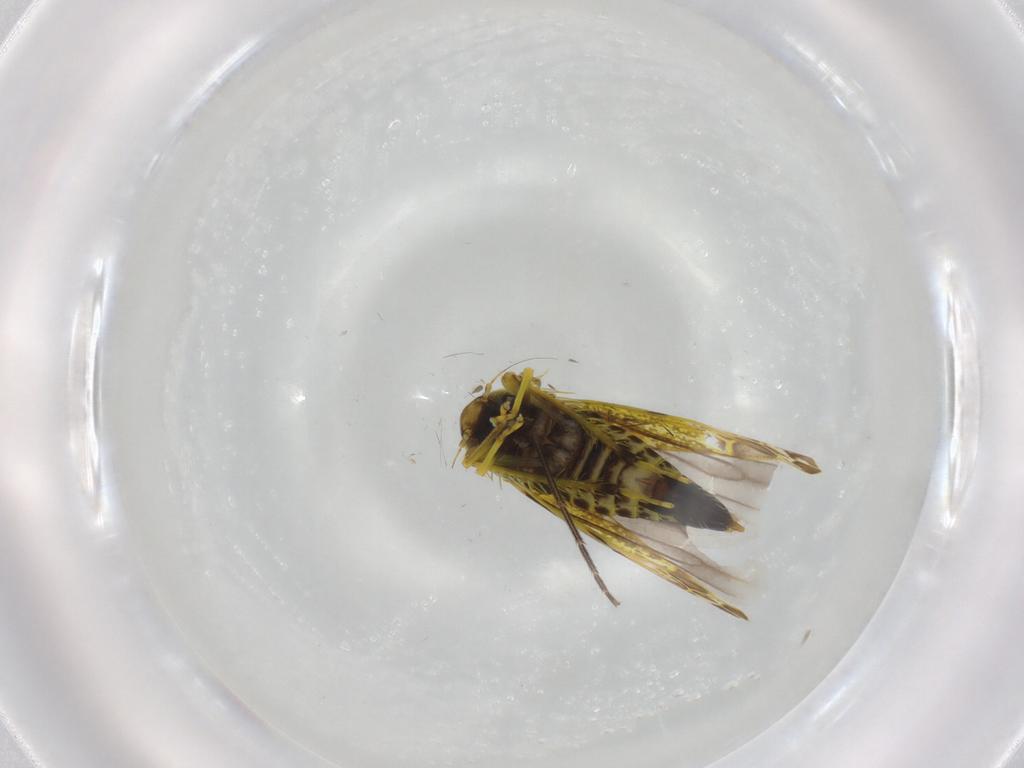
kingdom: Animalia
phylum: Arthropoda
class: Insecta
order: Hemiptera
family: Cicadellidae
